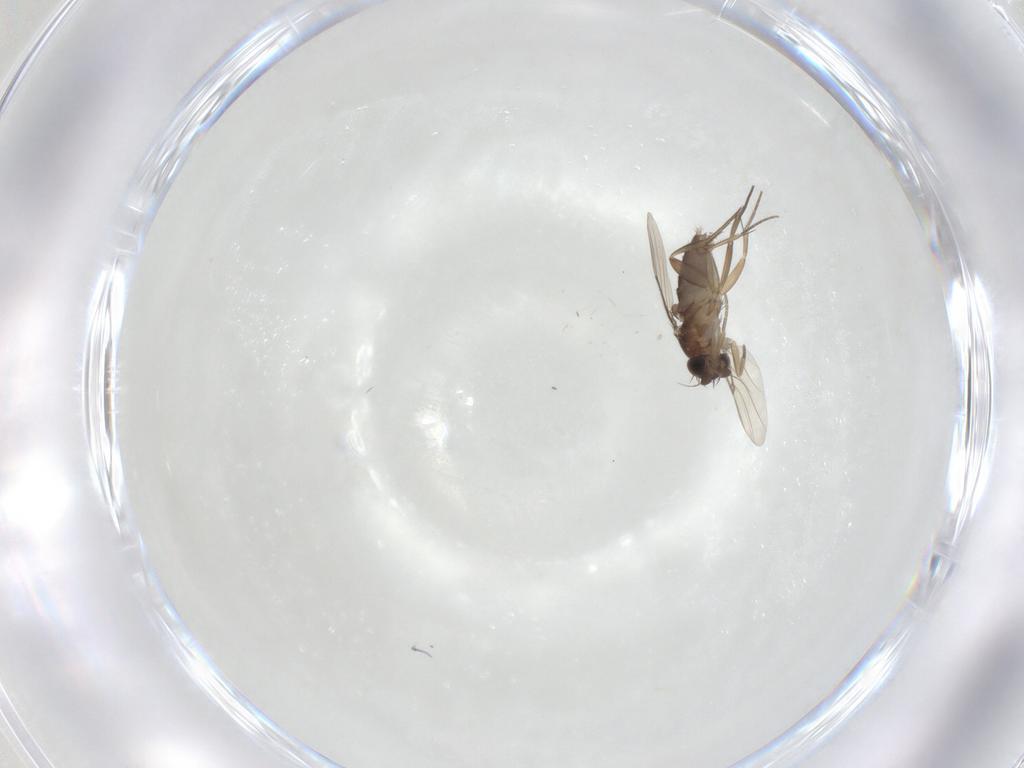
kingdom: Animalia
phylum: Arthropoda
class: Insecta
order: Diptera
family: Phoridae
